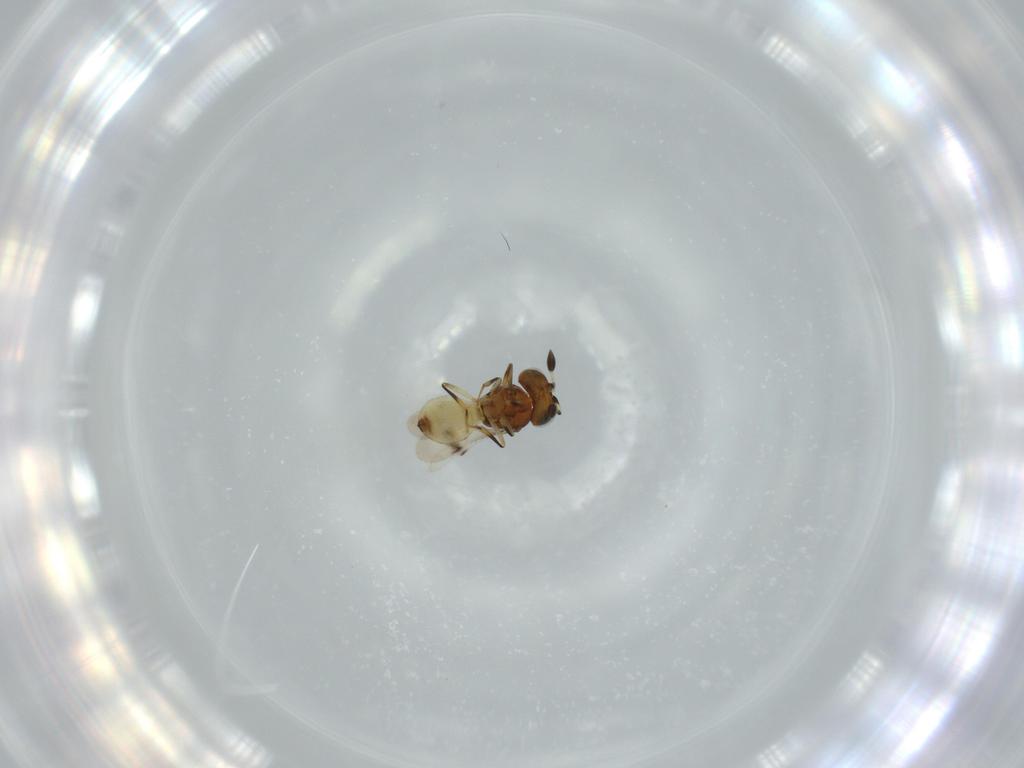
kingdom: Animalia
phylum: Arthropoda
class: Arachnida
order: Araneae
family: Pholcidae
